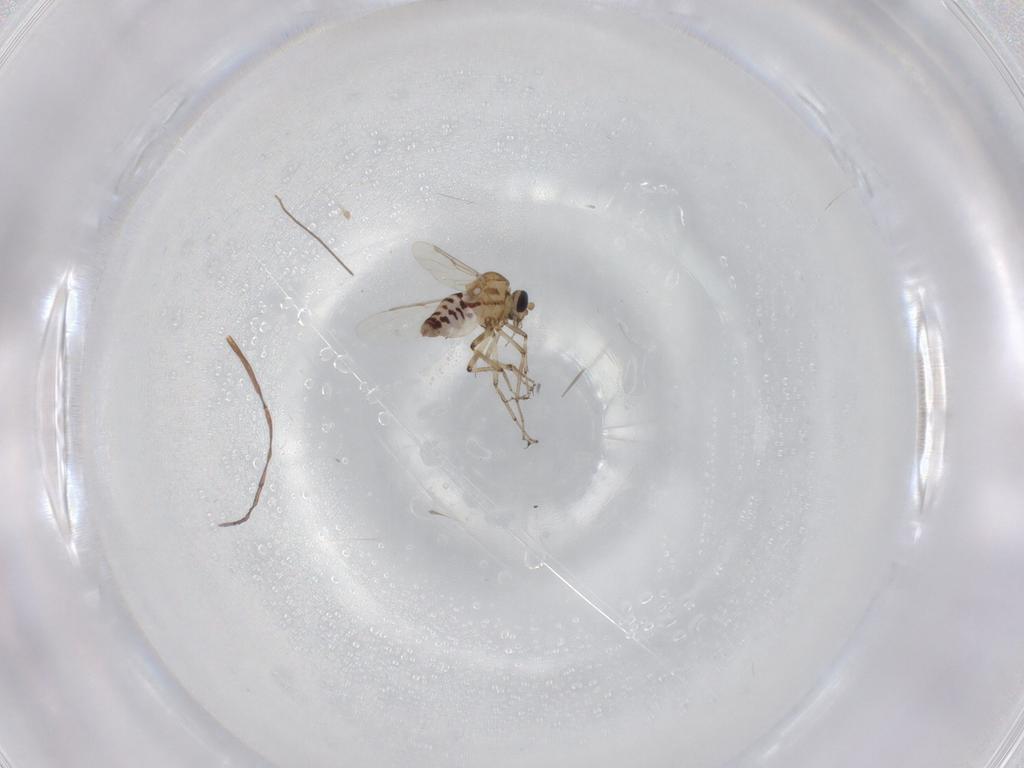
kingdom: Animalia
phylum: Arthropoda
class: Insecta
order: Diptera
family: Ceratopogonidae
